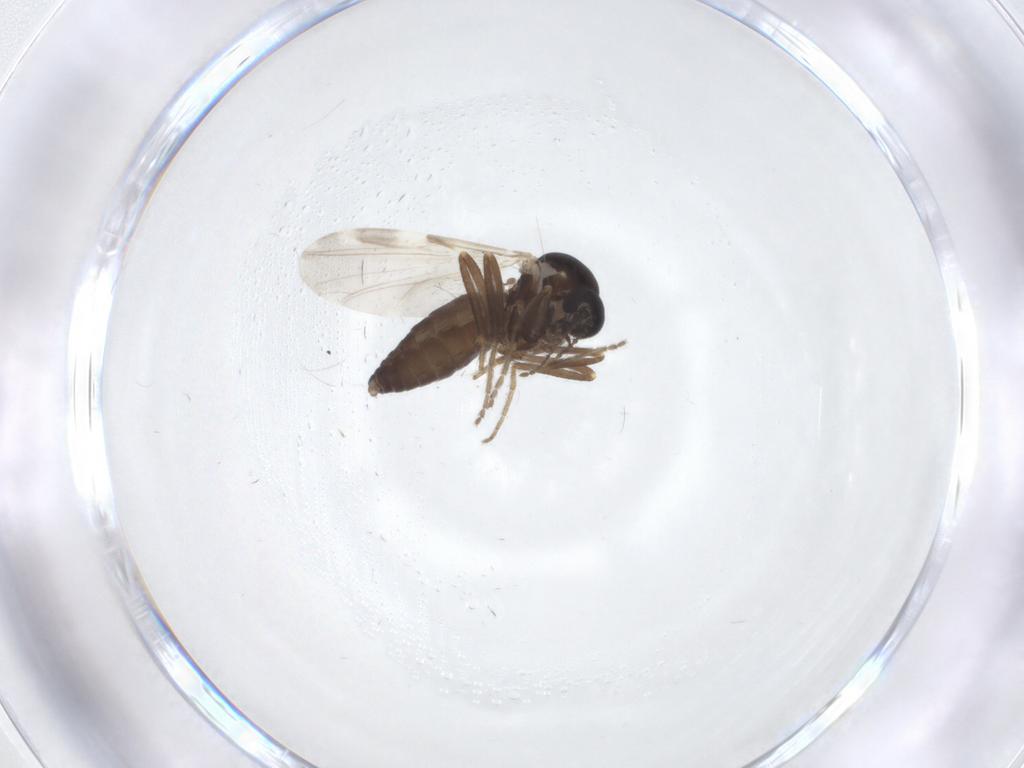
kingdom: Animalia
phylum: Arthropoda
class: Insecta
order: Diptera
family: Ceratopogonidae
